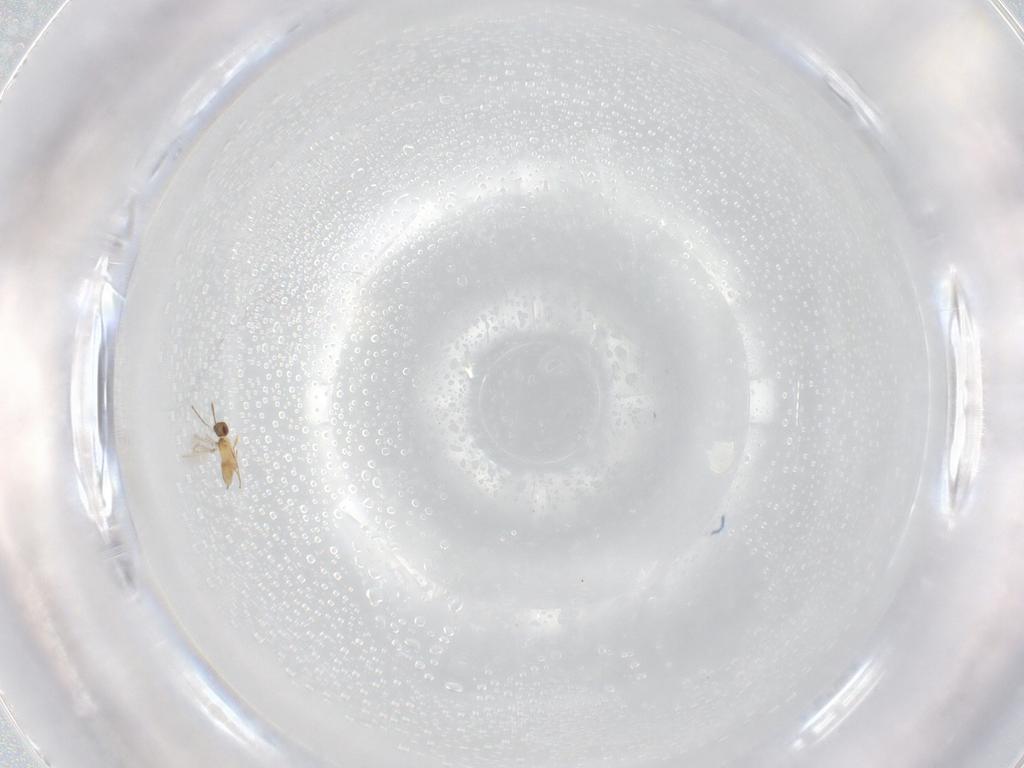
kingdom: Animalia
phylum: Arthropoda
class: Insecta
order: Hymenoptera
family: Mymaridae
